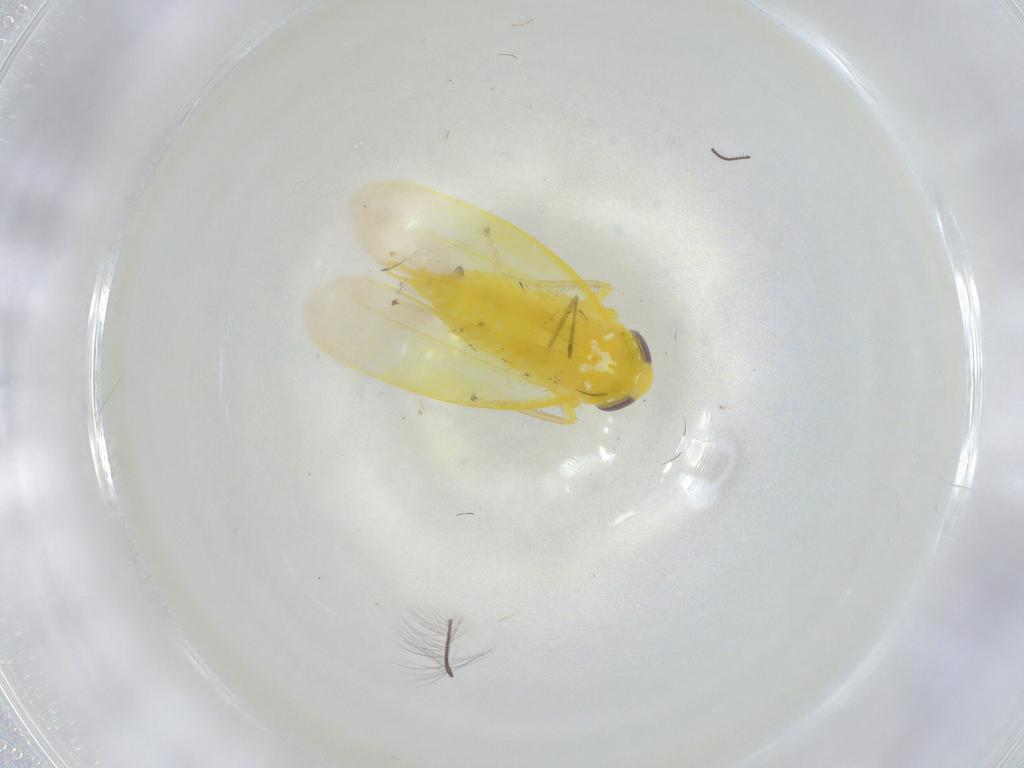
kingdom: Animalia
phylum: Arthropoda
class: Insecta
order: Hemiptera
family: Cicadellidae
